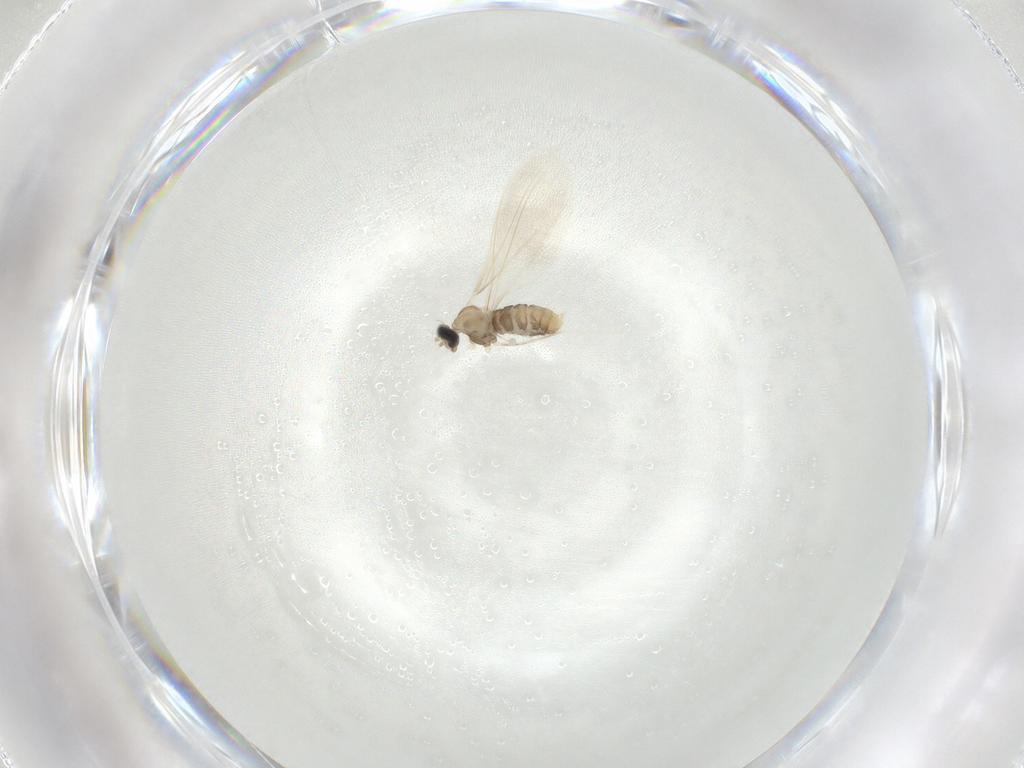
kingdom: Animalia
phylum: Arthropoda
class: Insecta
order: Diptera
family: Cecidomyiidae
